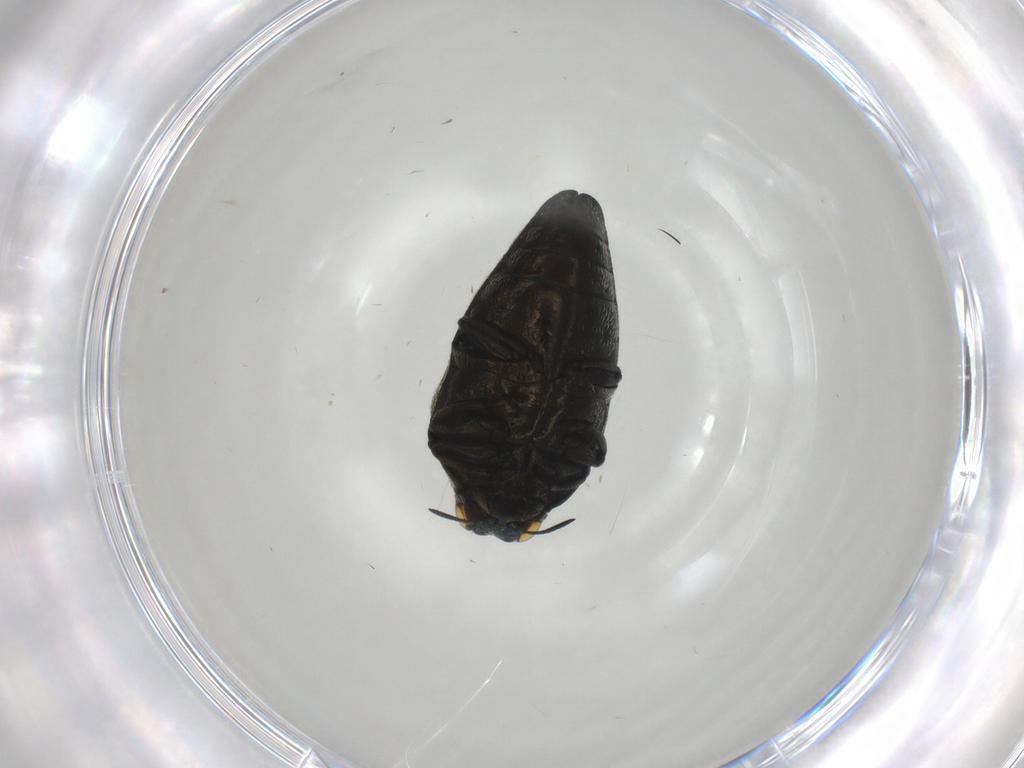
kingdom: Animalia
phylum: Arthropoda
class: Insecta
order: Coleoptera
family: Buprestidae
